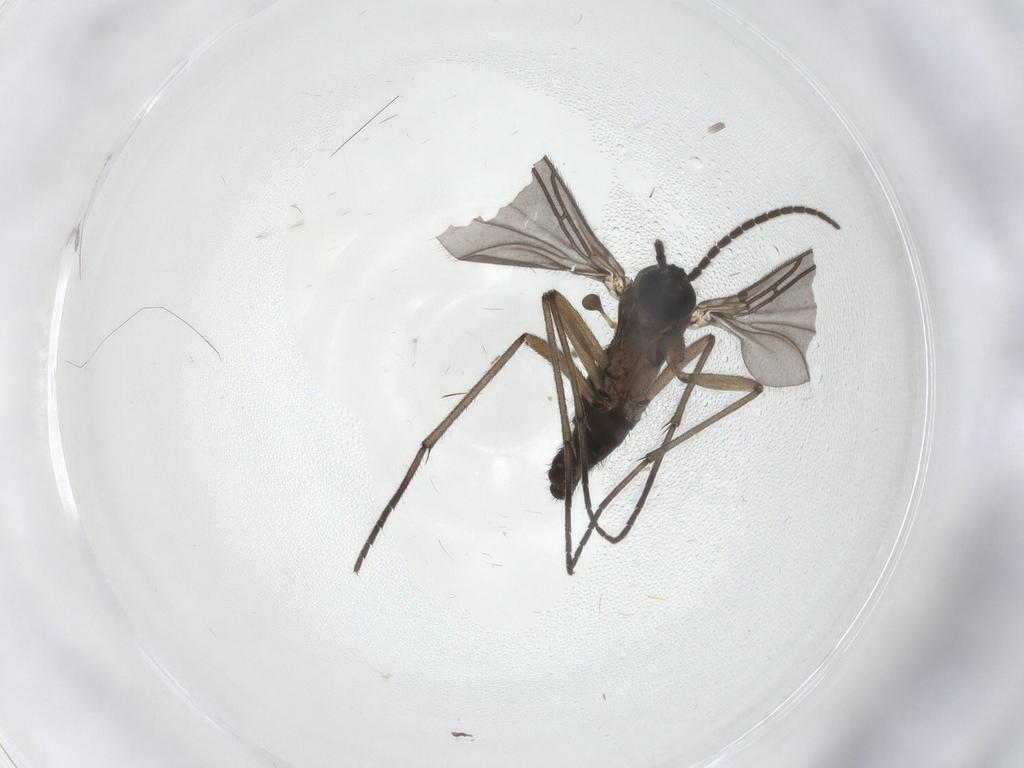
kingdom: Animalia
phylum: Arthropoda
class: Insecta
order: Diptera
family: Sciaridae
